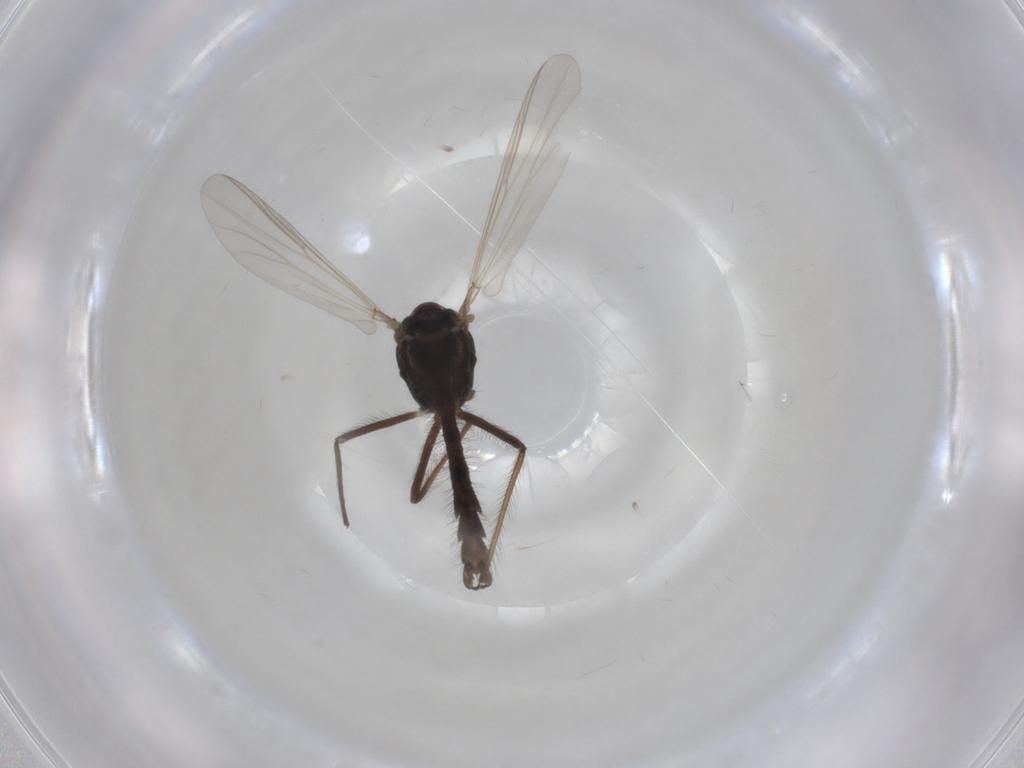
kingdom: Animalia
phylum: Arthropoda
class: Insecta
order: Diptera
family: Chironomidae
